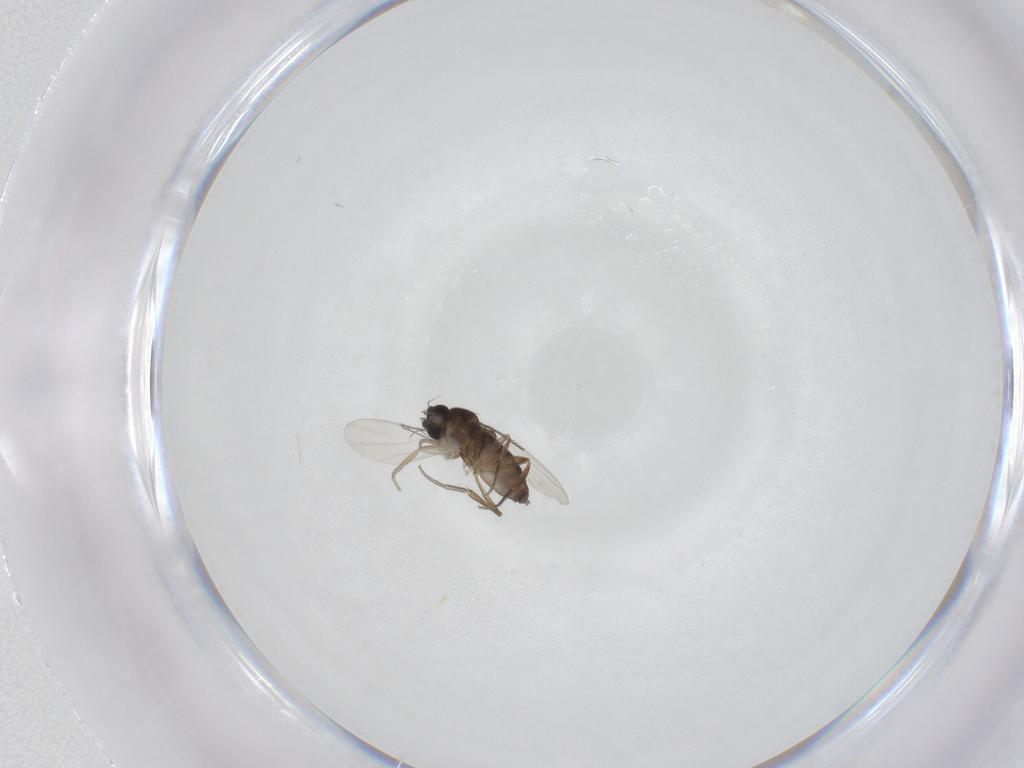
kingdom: Animalia
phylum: Arthropoda
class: Insecta
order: Diptera
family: Phoridae
